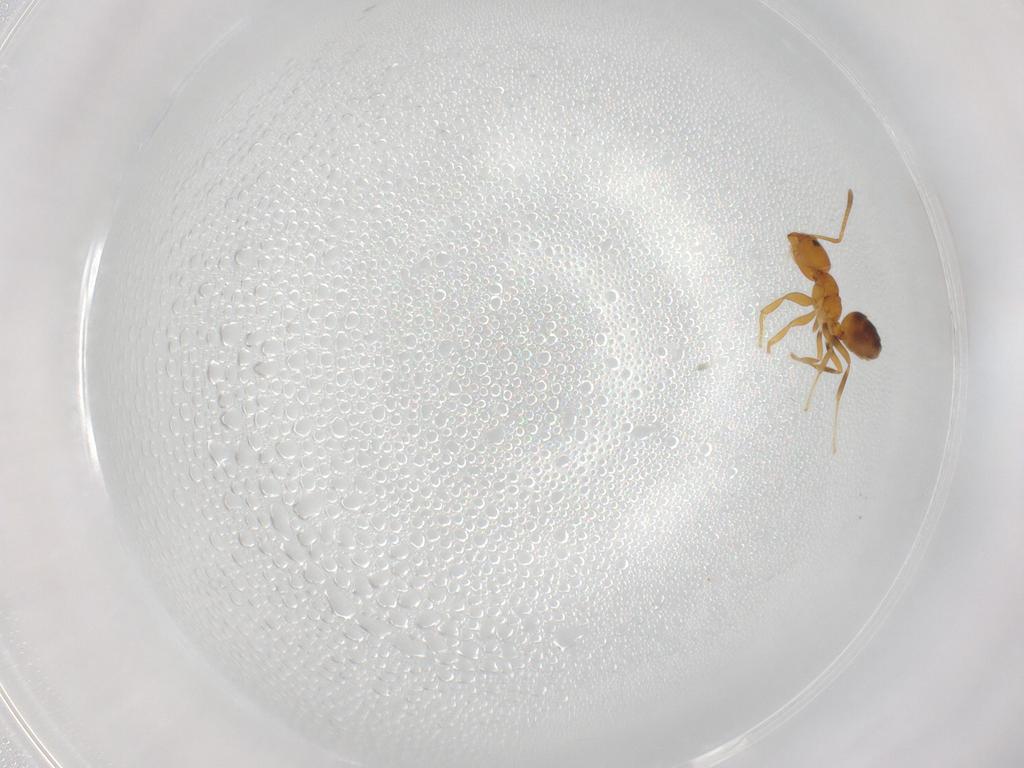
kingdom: Animalia
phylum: Arthropoda
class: Insecta
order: Hymenoptera
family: Formicidae
